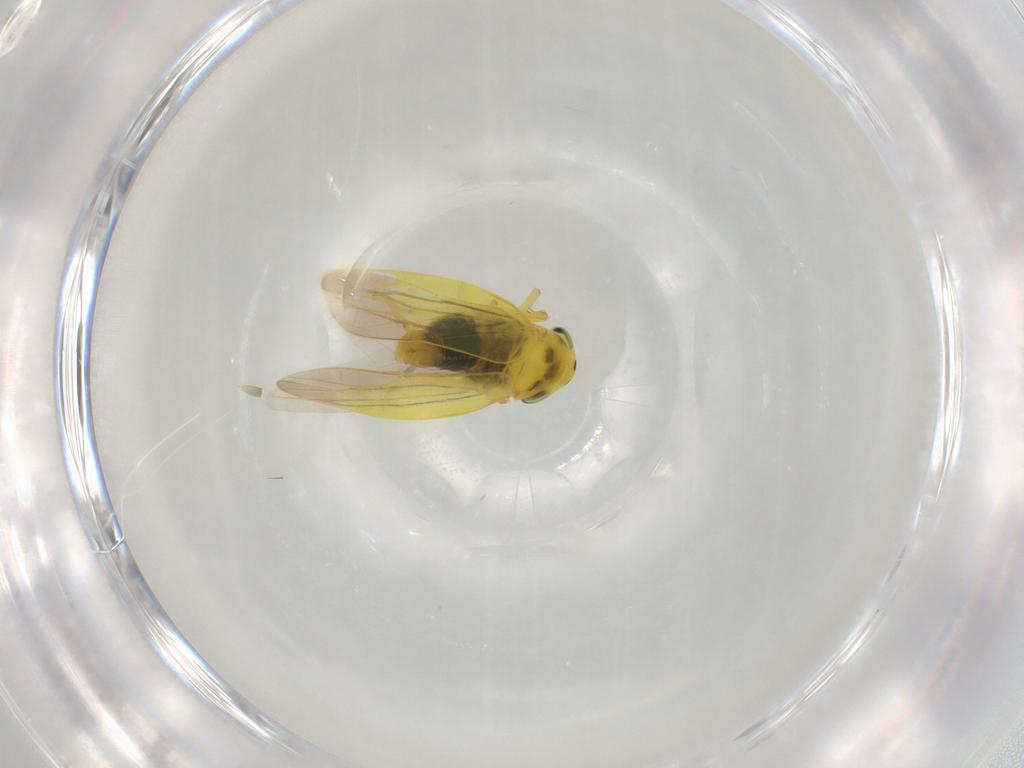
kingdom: Animalia
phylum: Arthropoda
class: Insecta
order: Hemiptera
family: Cicadellidae
